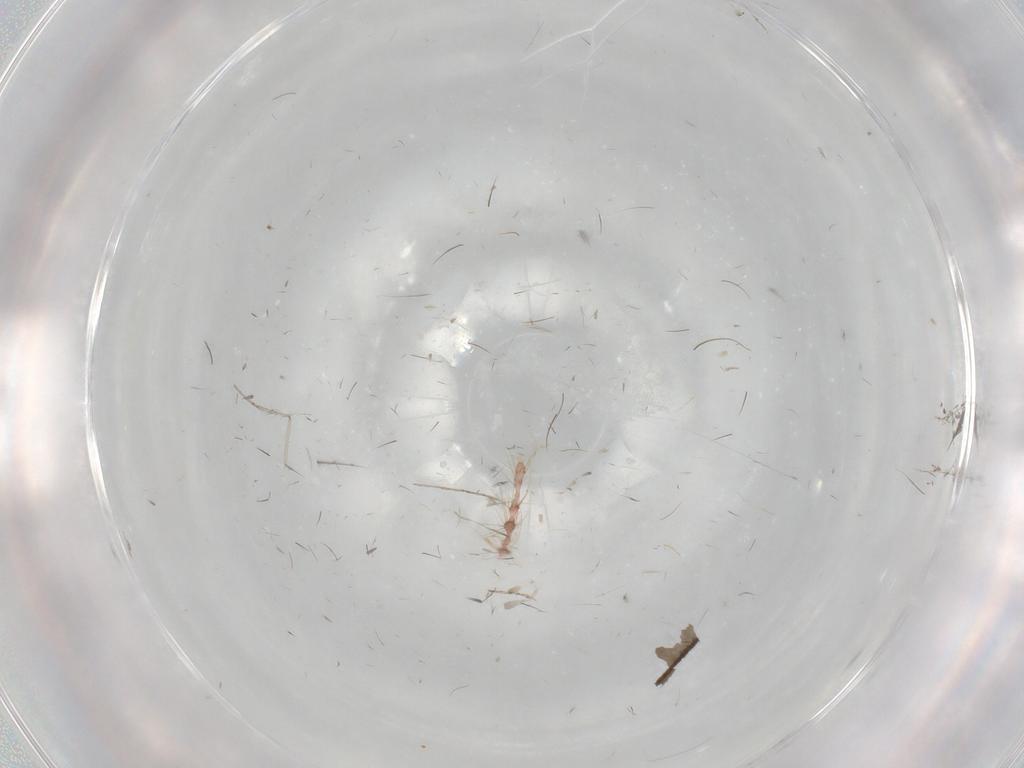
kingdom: Animalia
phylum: Arthropoda
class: Insecta
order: Hemiptera
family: Margarodidae
